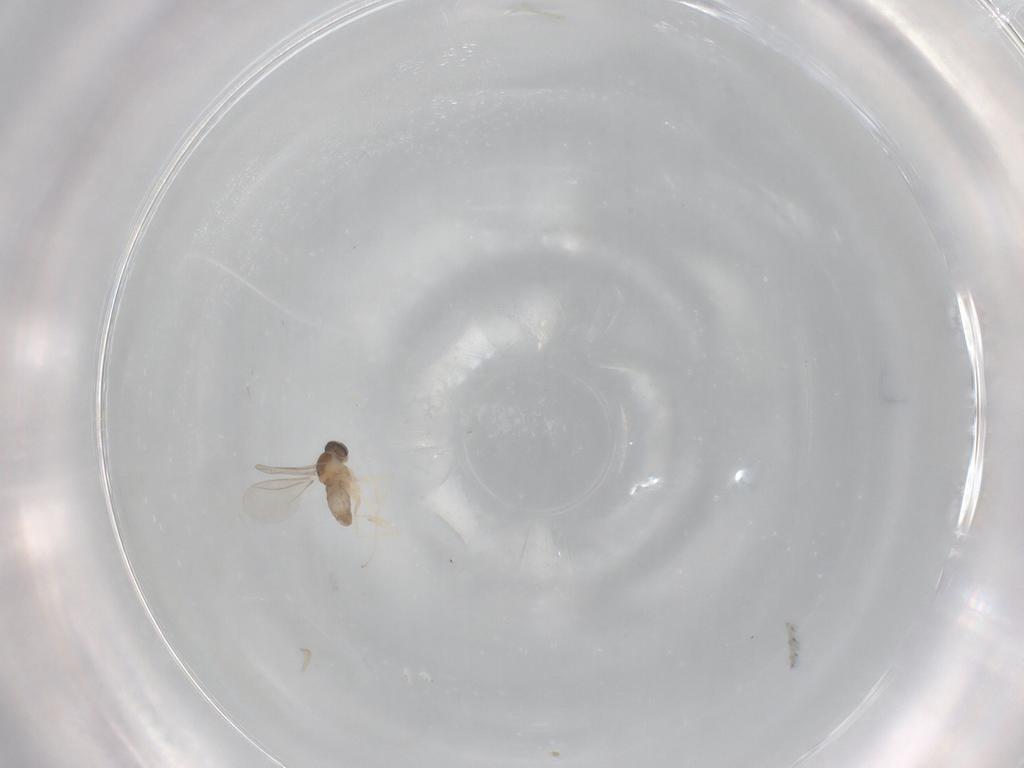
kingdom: Animalia
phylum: Arthropoda
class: Insecta
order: Diptera
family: Cecidomyiidae
